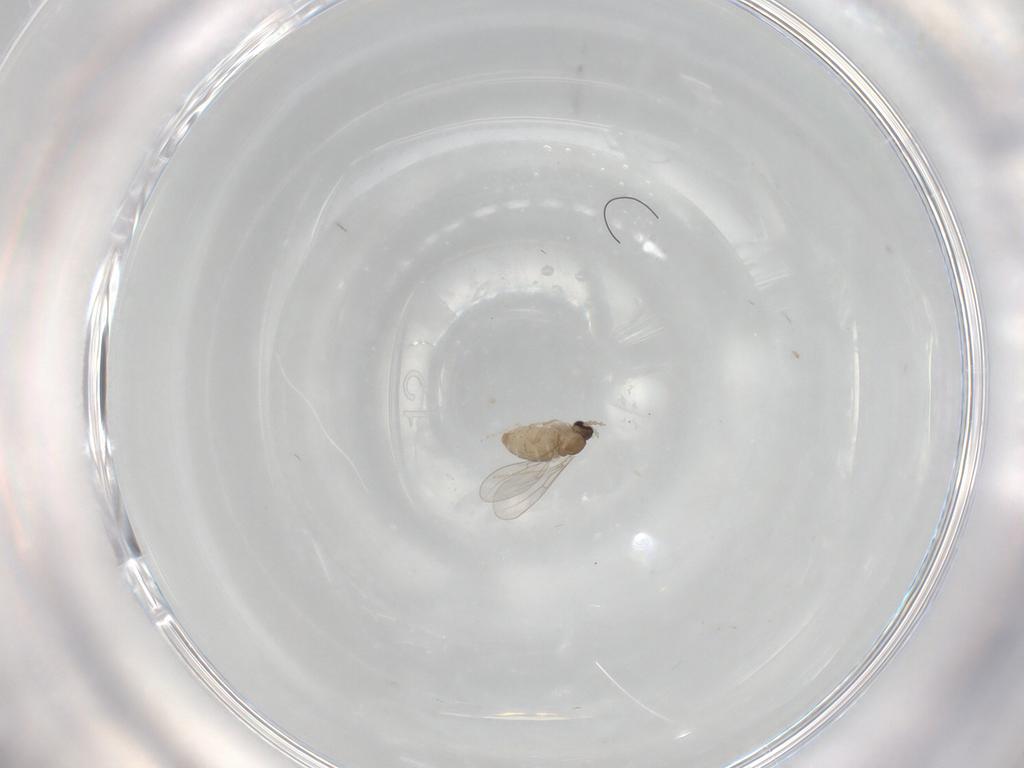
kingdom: Animalia
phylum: Arthropoda
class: Insecta
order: Diptera
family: Cecidomyiidae
